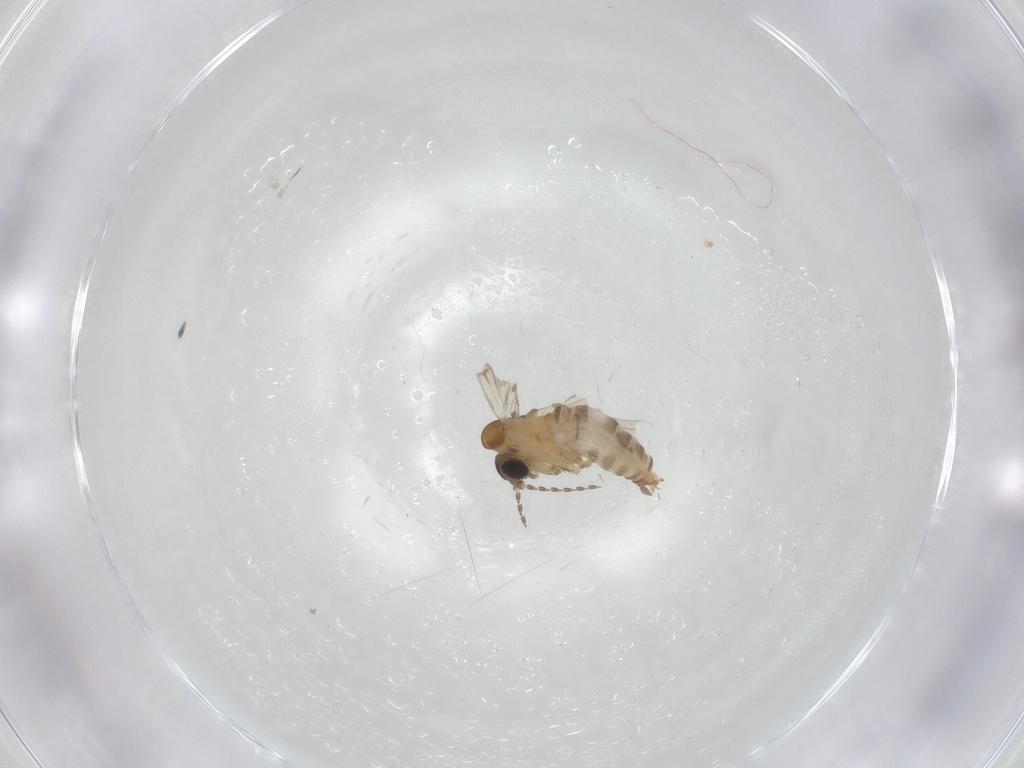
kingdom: Animalia
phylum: Arthropoda
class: Insecta
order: Diptera
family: Psychodidae
